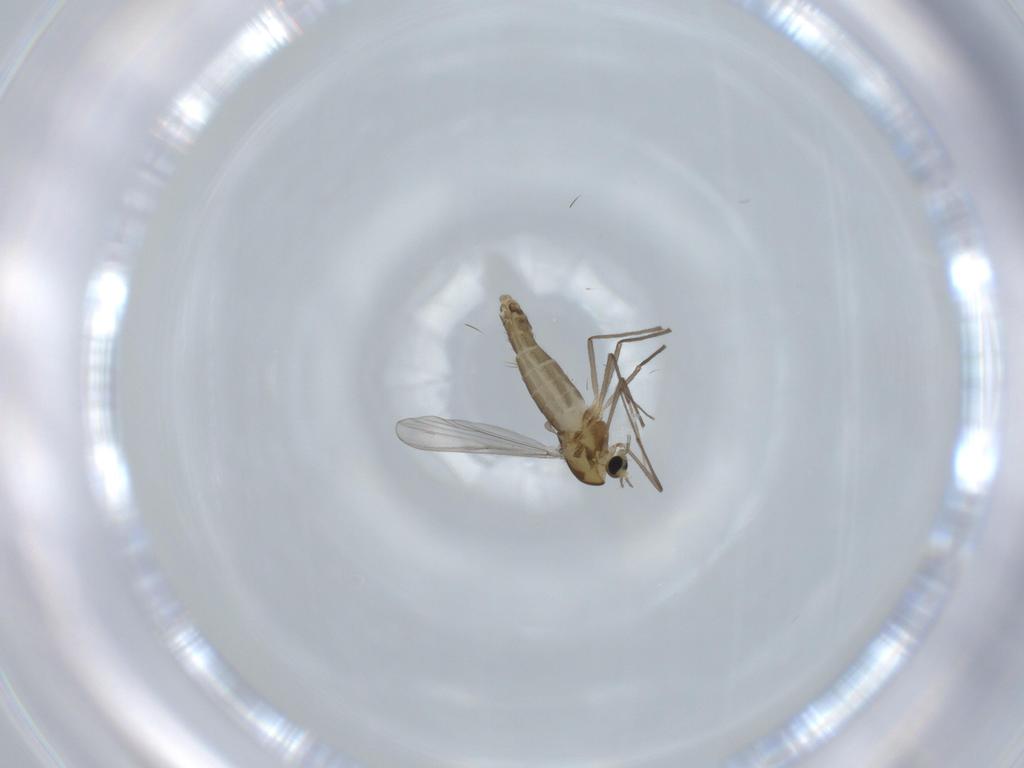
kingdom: Animalia
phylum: Arthropoda
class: Insecta
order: Diptera
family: Chironomidae
